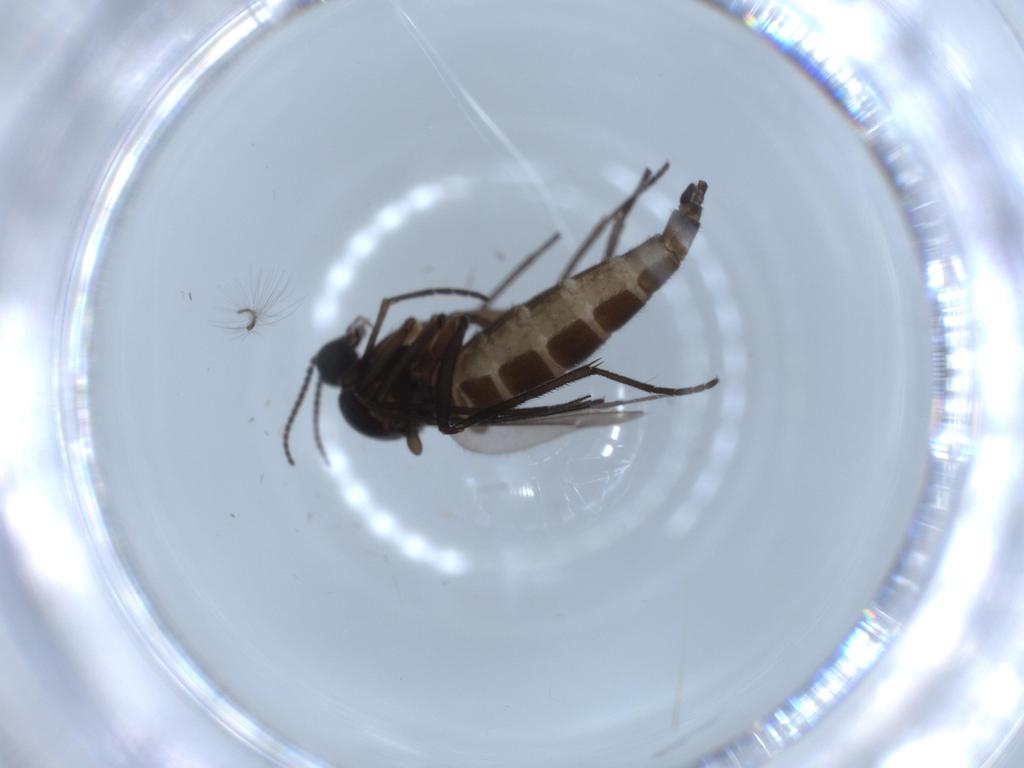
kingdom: Animalia
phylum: Arthropoda
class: Insecta
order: Diptera
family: Sciaridae
